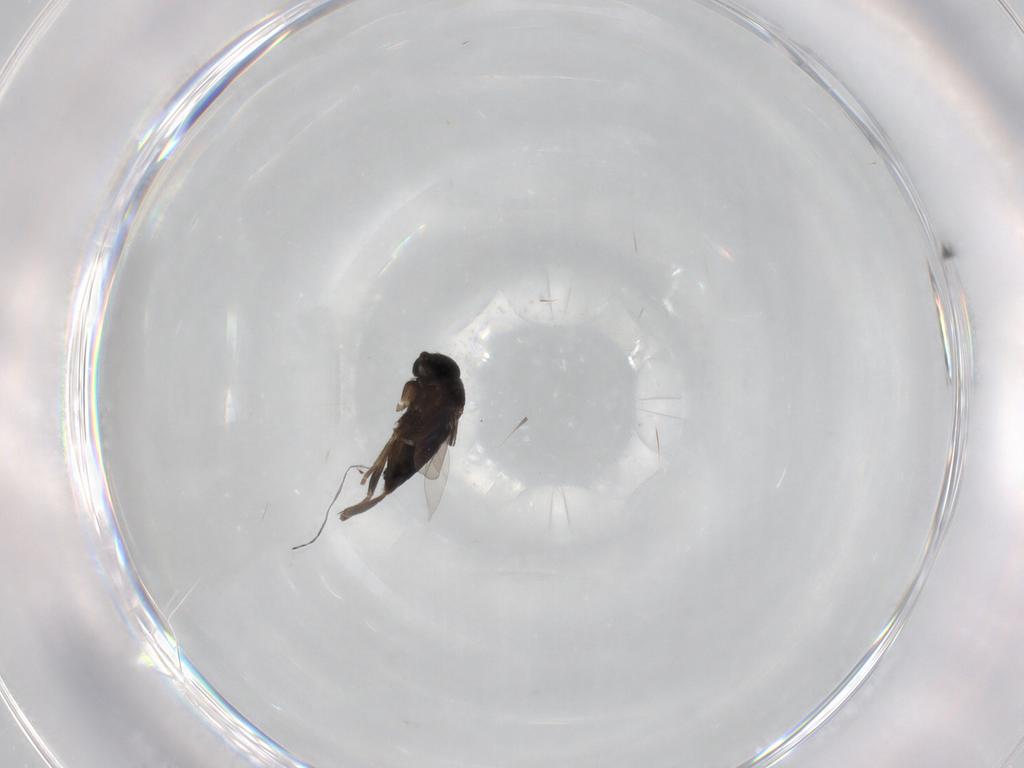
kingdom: Animalia
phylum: Arthropoda
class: Insecta
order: Diptera
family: Phoridae
